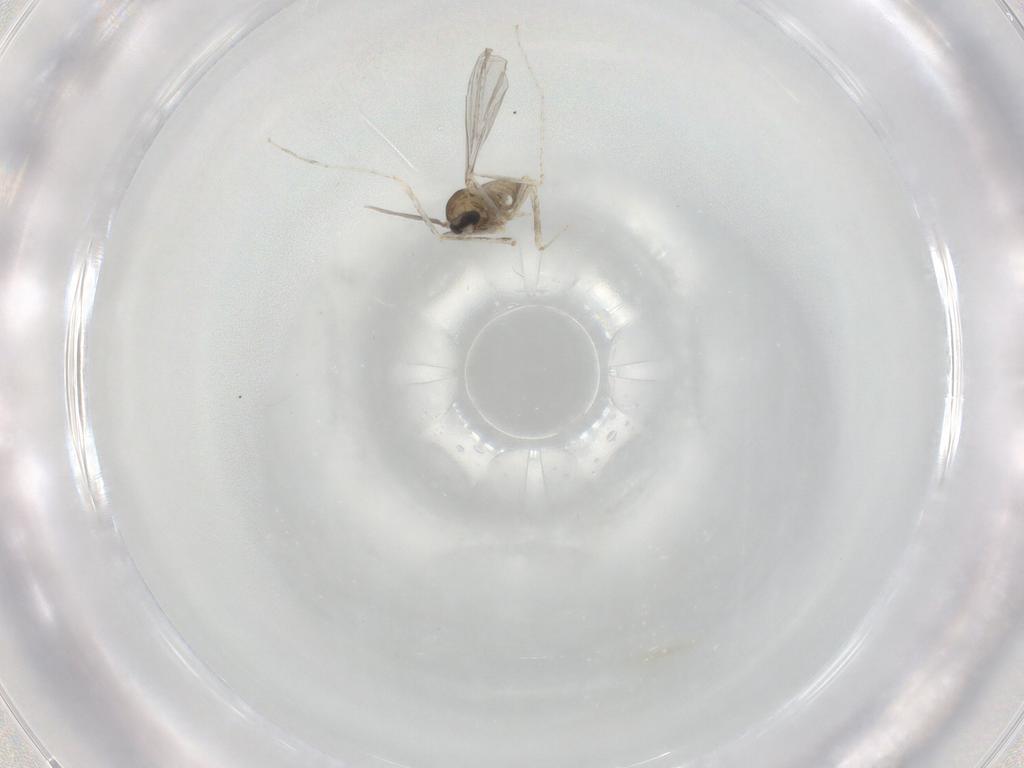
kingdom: Animalia
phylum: Arthropoda
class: Insecta
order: Diptera
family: Cecidomyiidae
